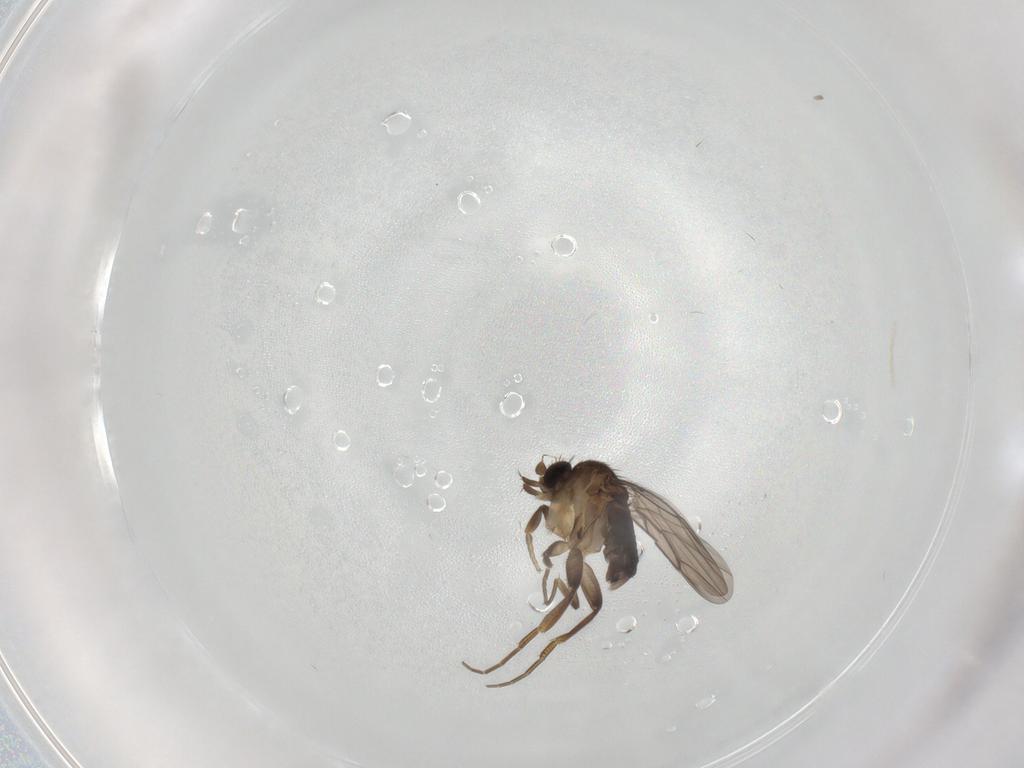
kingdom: Animalia
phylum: Arthropoda
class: Insecta
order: Diptera
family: Phoridae
